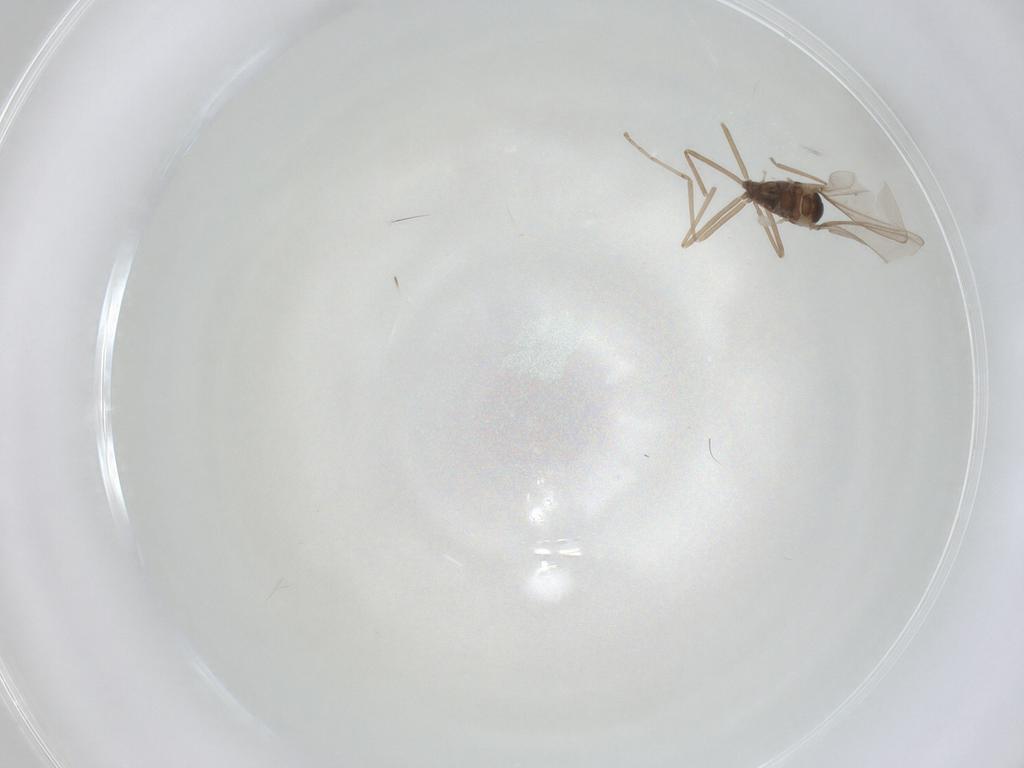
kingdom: Animalia
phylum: Arthropoda
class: Insecta
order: Diptera
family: Cecidomyiidae
